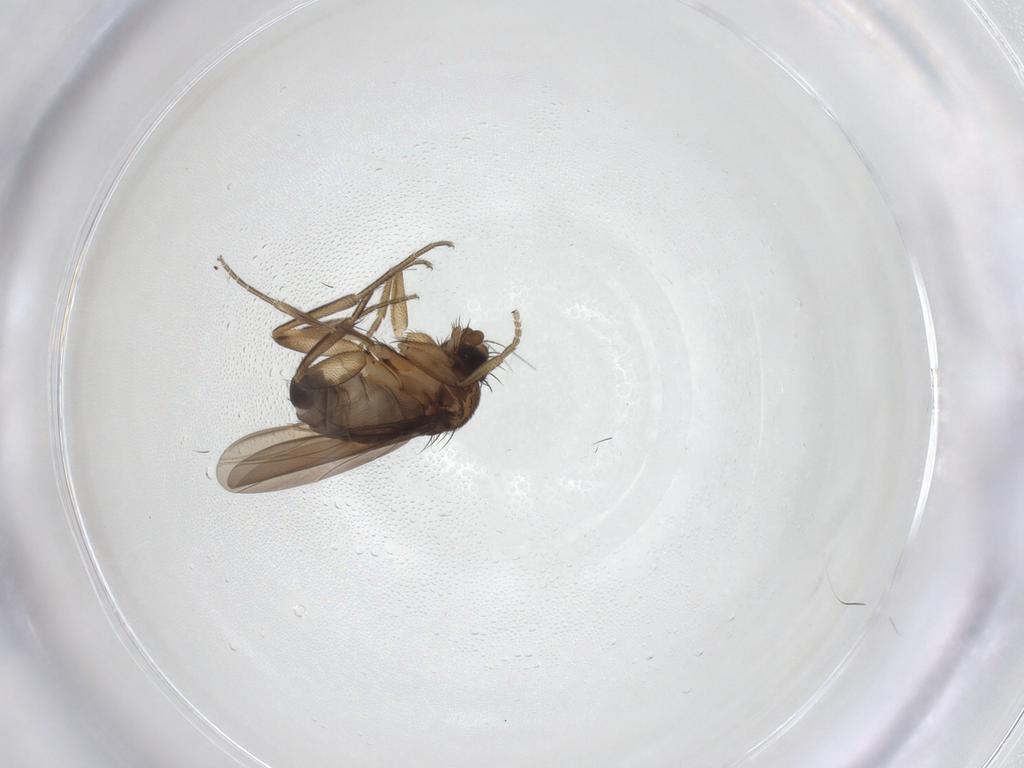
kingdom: Animalia
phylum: Arthropoda
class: Insecta
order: Diptera
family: Phoridae
